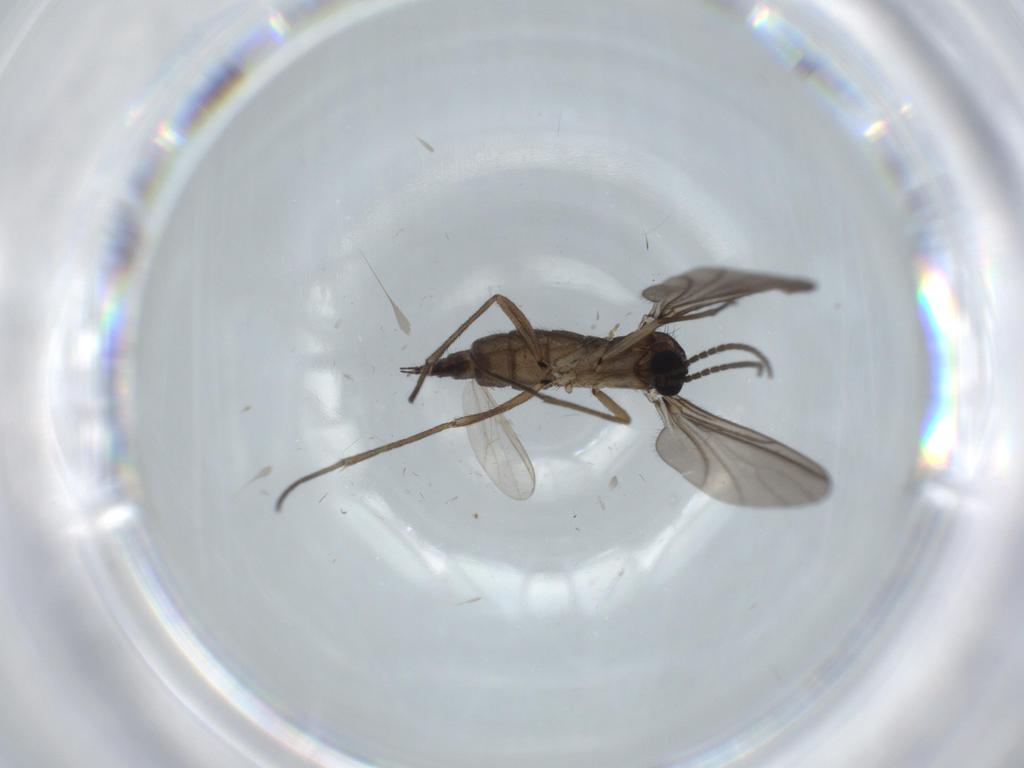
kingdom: Animalia
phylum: Arthropoda
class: Insecta
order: Diptera
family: Sciaridae
